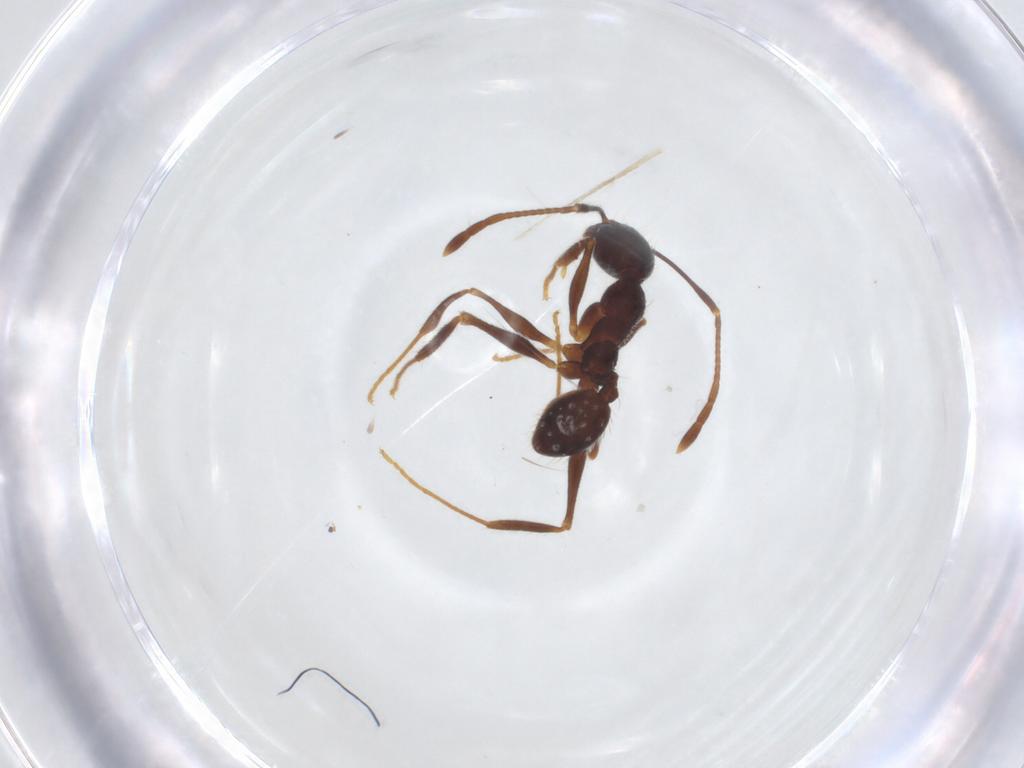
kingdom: Animalia
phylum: Arthropoda
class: Insecta
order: Hymenoptera
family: Formicidae
